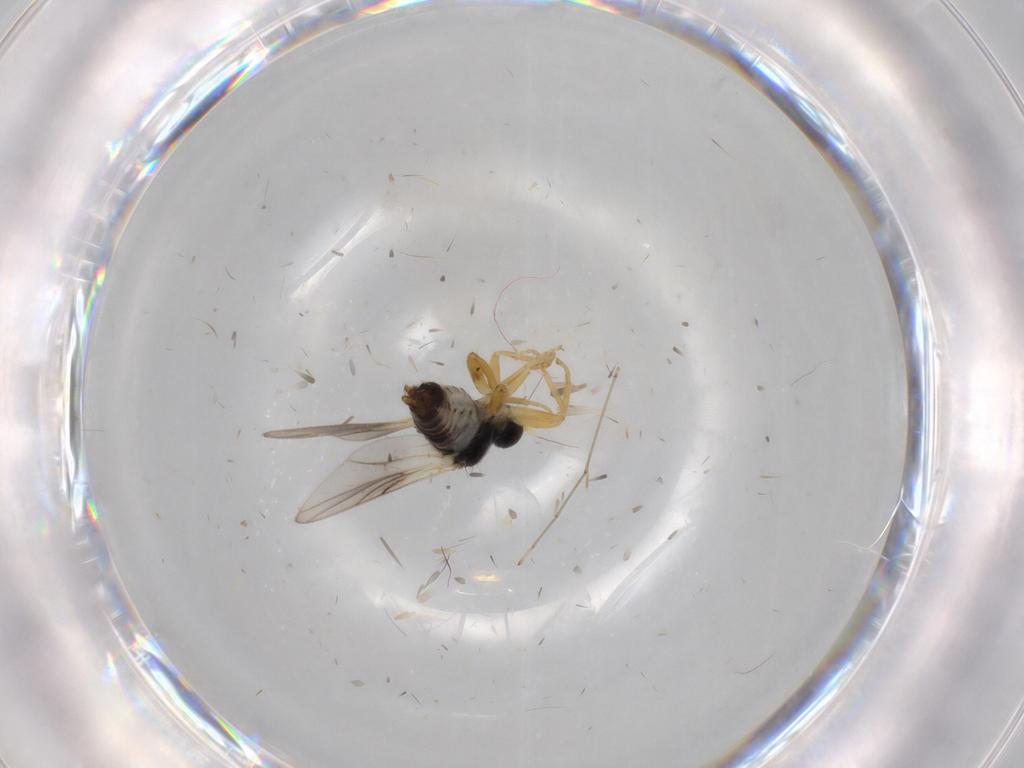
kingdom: Animalia
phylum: Arthropoda
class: Insecta
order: Diptera
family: Hybotidae
